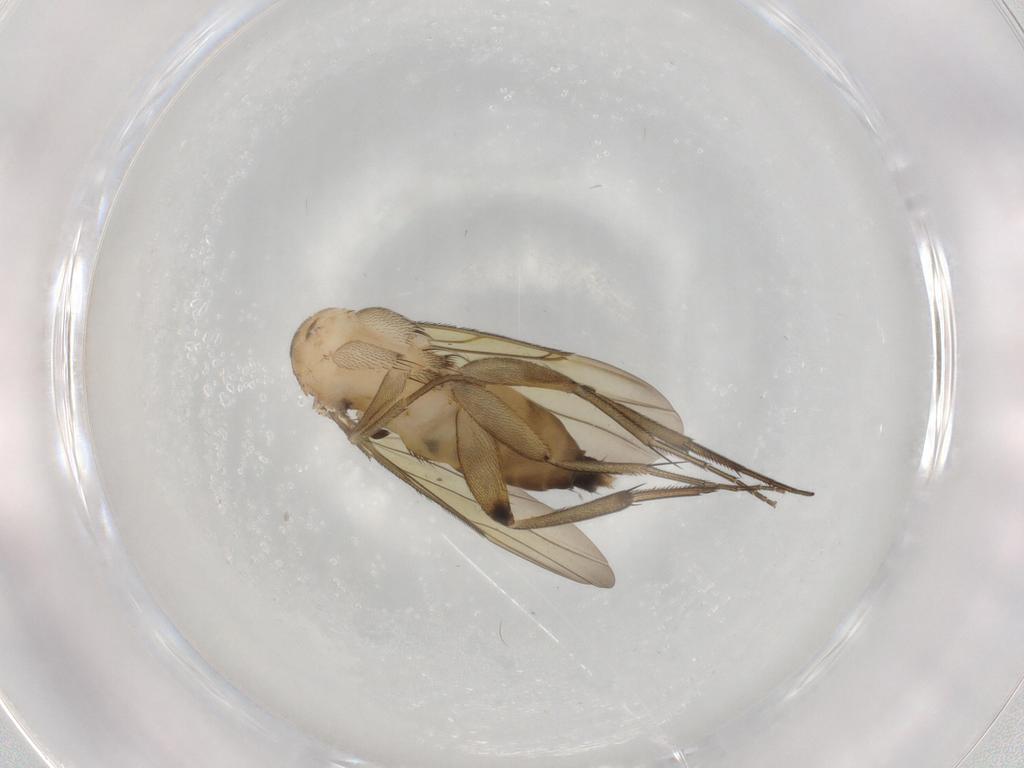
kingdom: Animalia
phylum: Arthropoda
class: Insecta
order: Diptera
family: Phoridae
